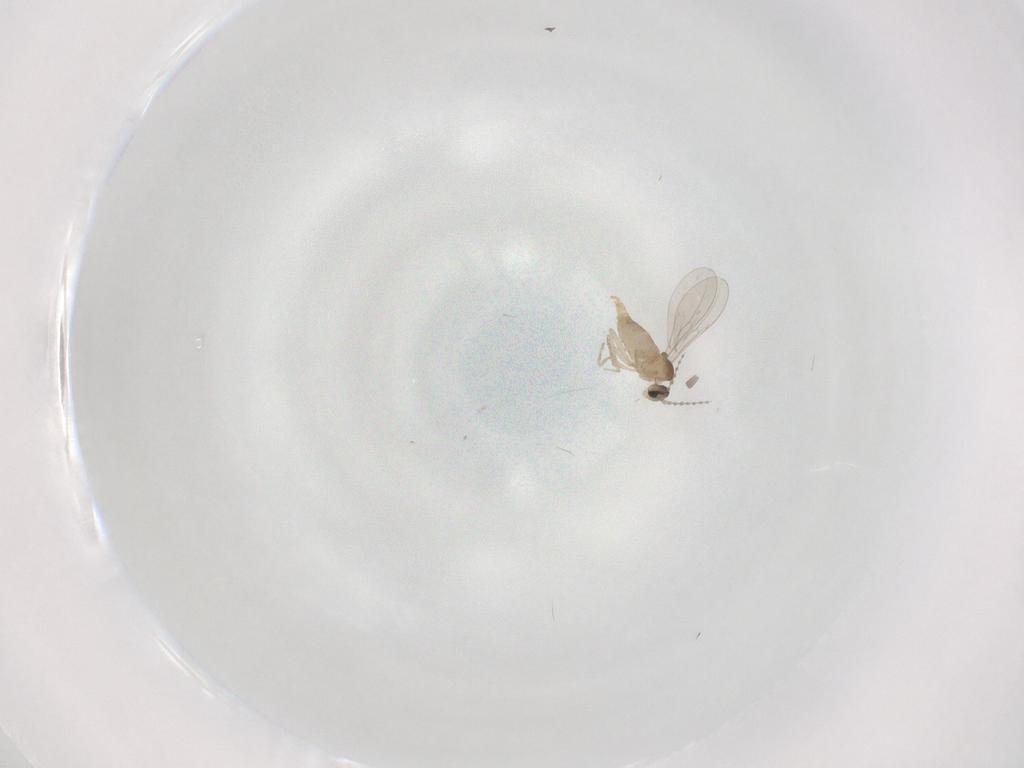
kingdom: Animalia
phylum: Arthropoda
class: Insecta
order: Diptera
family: Cecidomyiidae
